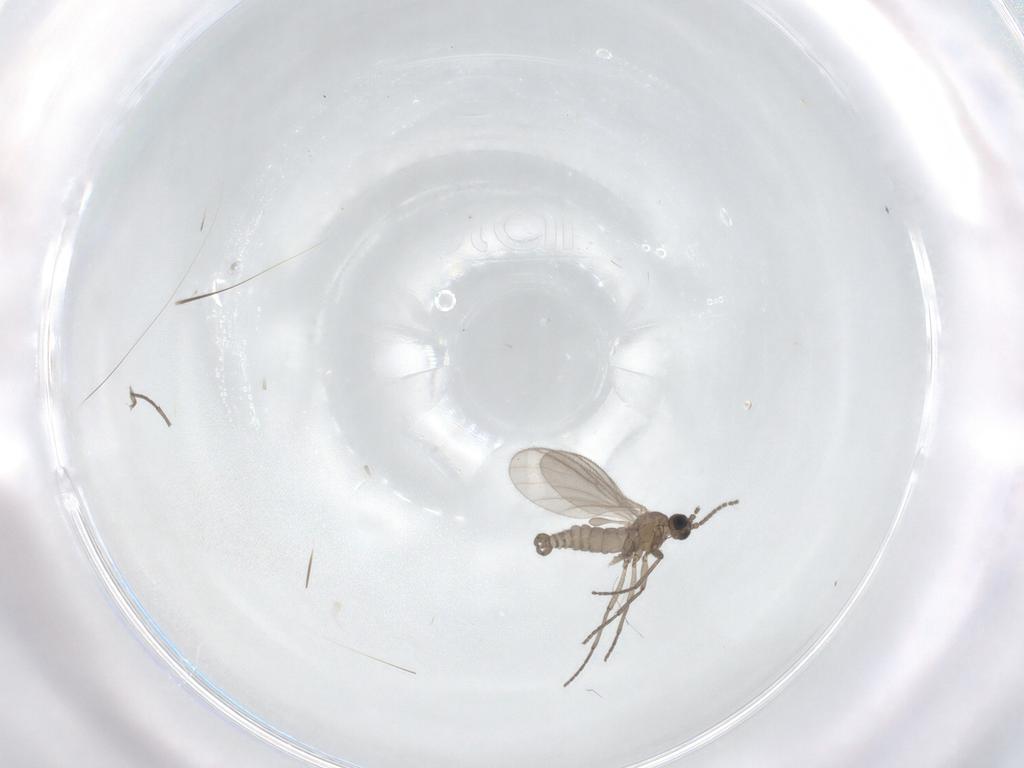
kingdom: Animalia
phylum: Arthropoda
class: Insecta
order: Diptera
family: Sciaridae
